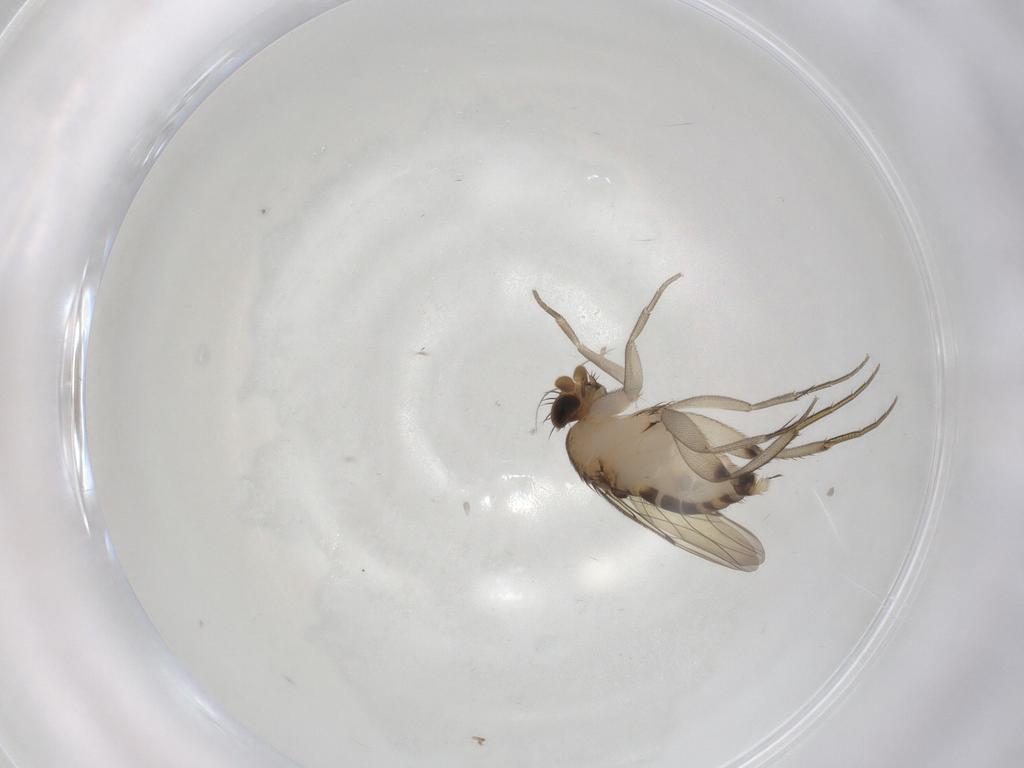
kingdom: Animalia
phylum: Arthropoda
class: Insecta
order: Diptera
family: Phoridae
